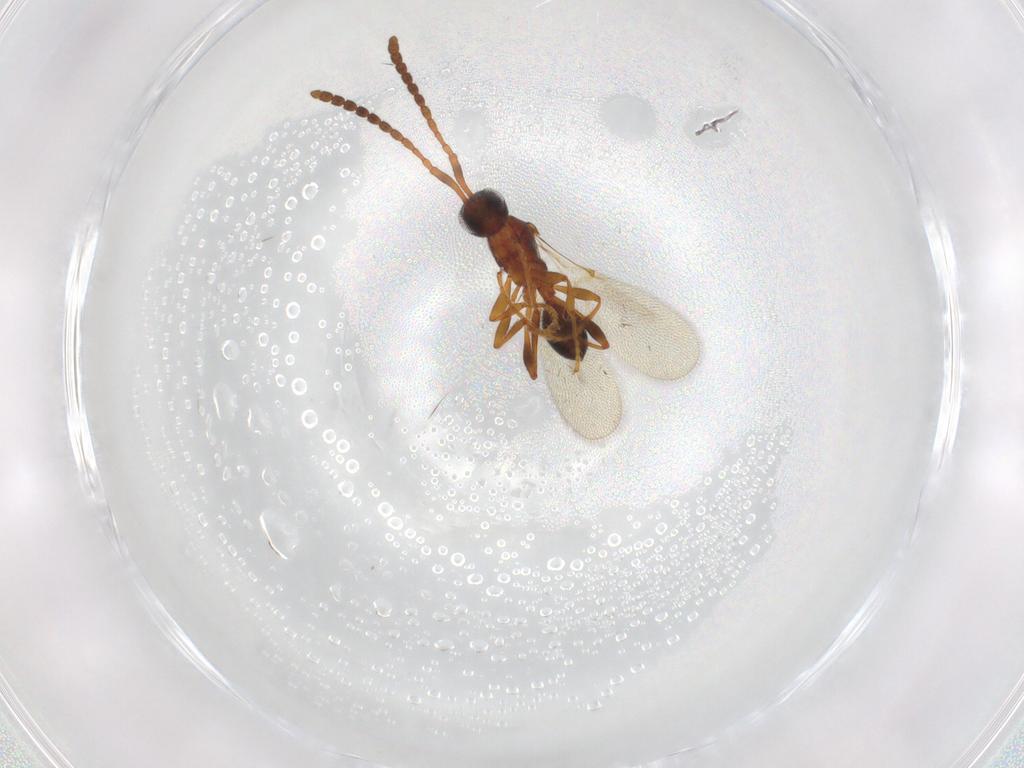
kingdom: Animalia
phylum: Arthropoda
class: Insecta
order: Hymenoptera
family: Diapriidae
